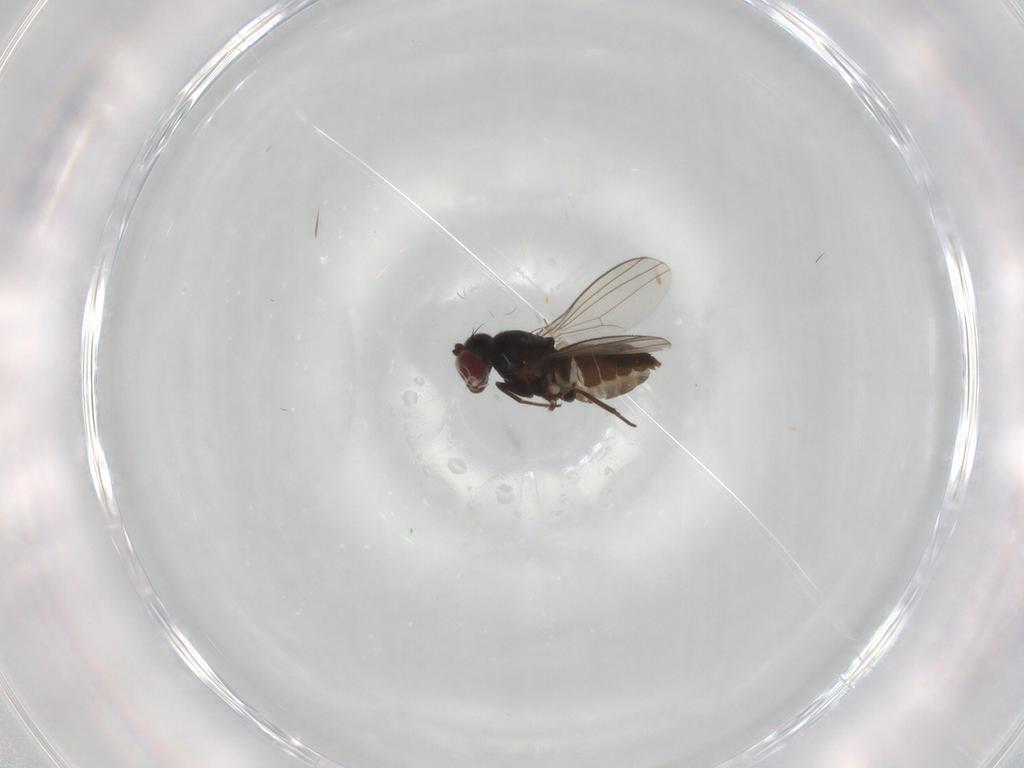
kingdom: Animalia
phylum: Arthropoda
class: Insecta
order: Diptera
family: Dolichopodidae
